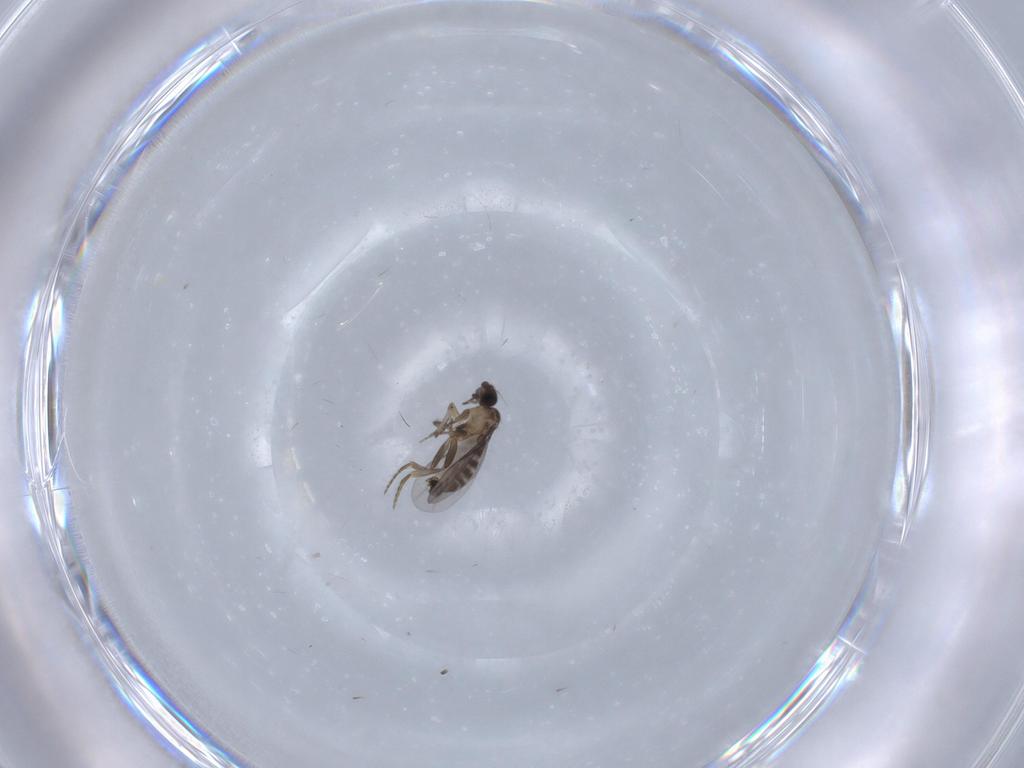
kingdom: Animalia
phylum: Arthropoda
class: Insecta
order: Diptera
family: Chironomidae
